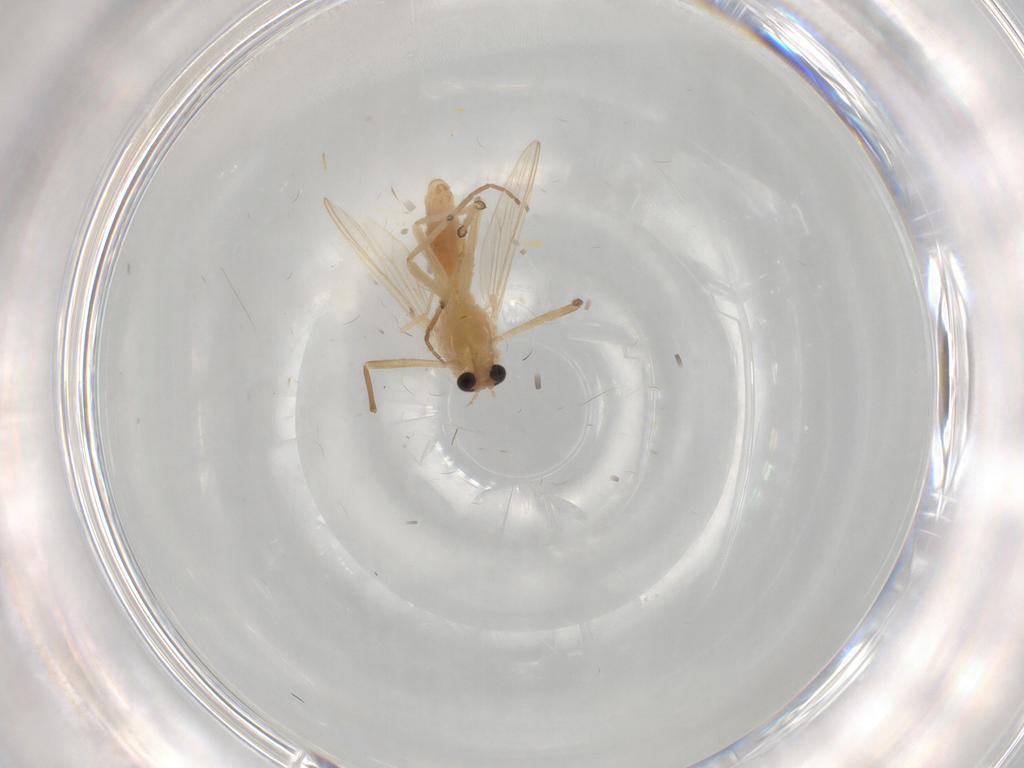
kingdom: Animalia
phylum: Arthropoda
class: Insecta
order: Diptera
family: Chironomidae
